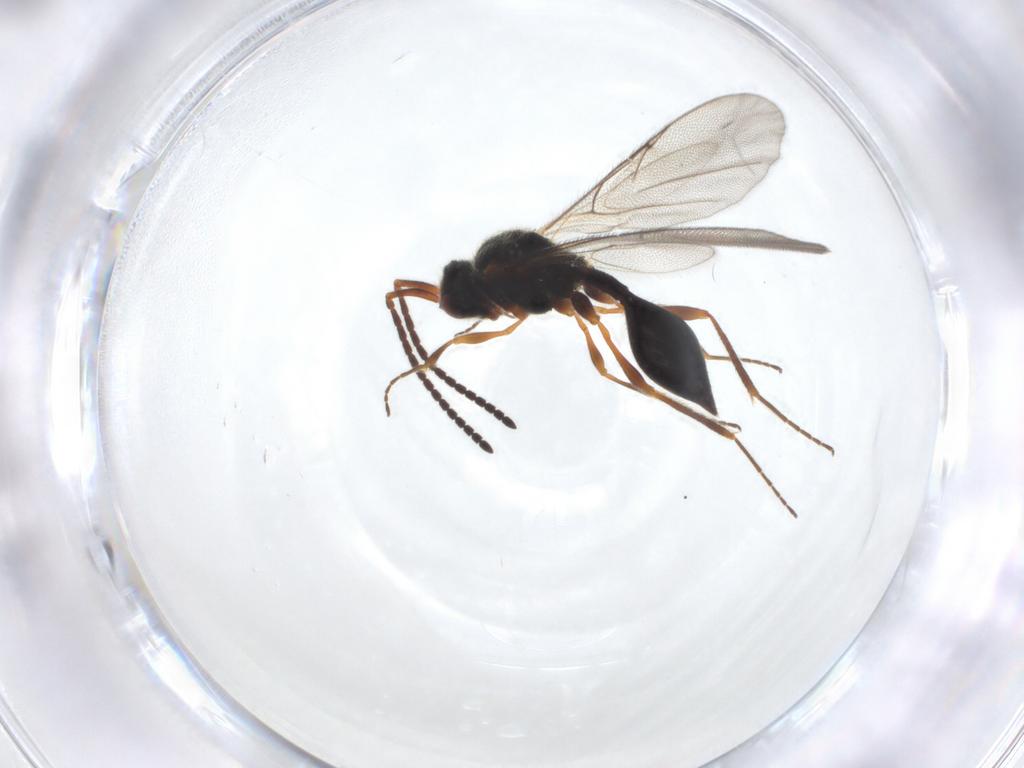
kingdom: Animalia
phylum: Arthropoda
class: Insecta
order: Hymenoptera
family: Diapriidae
